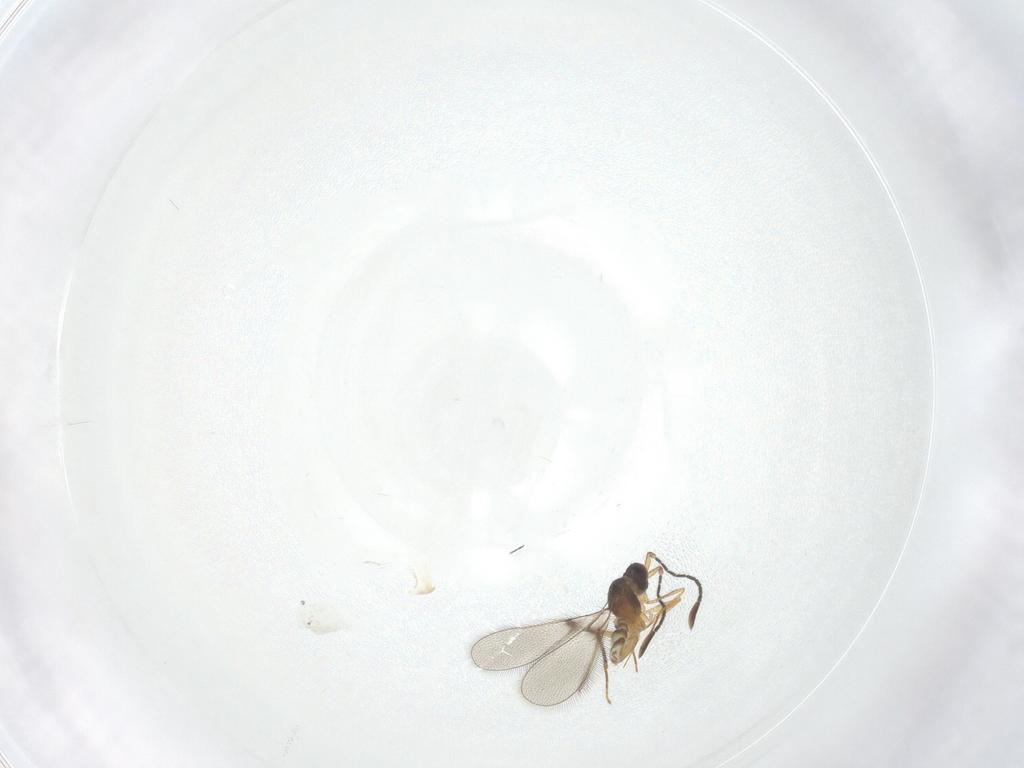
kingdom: Animalia
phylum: Arthropoda
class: Insecta
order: Hymenoptera
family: Mymaridae
